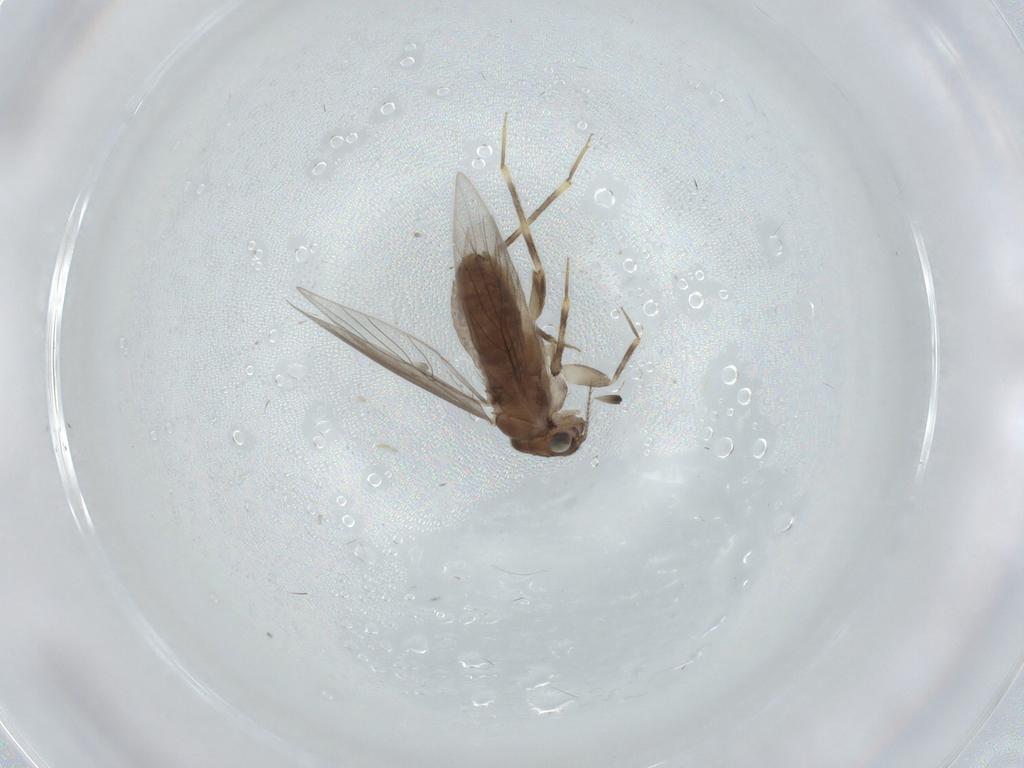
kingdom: Animalia
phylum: Arthropoda
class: Insecta
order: Psocodea
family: Lepidopsocidae
